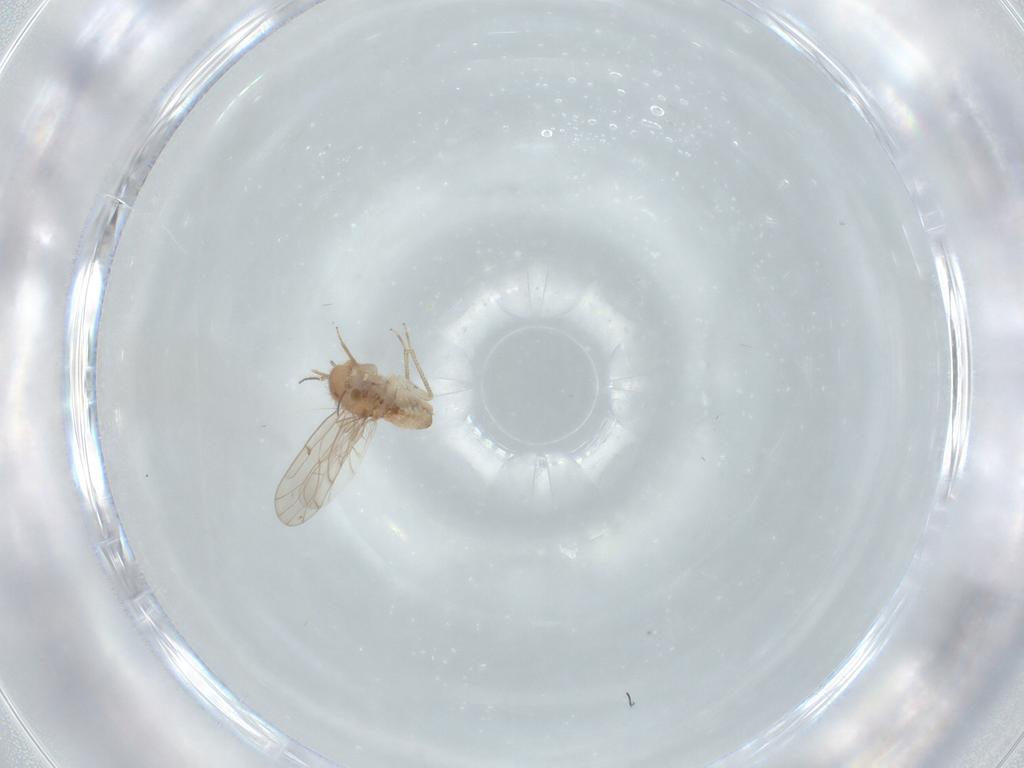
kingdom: Animalia
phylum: Arthropoda
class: Insecta
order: Psocodea
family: Ectopsocidae
